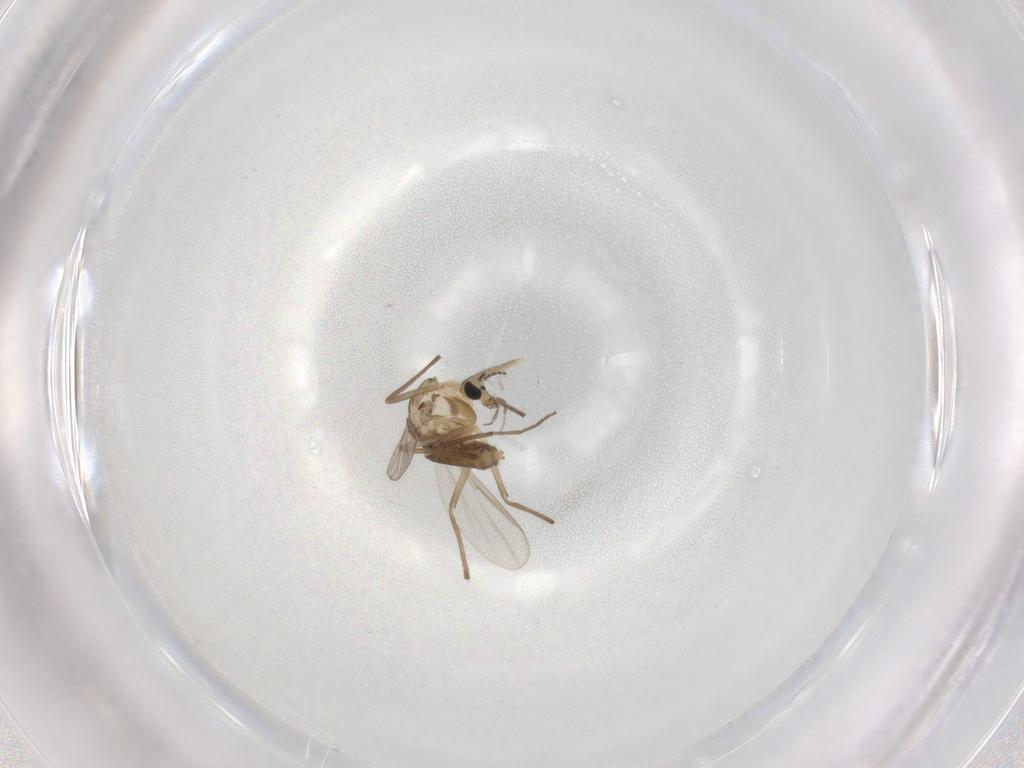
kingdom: Animalia
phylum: Arthropoda
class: Insecta
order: Diptera
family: Chironomidae
